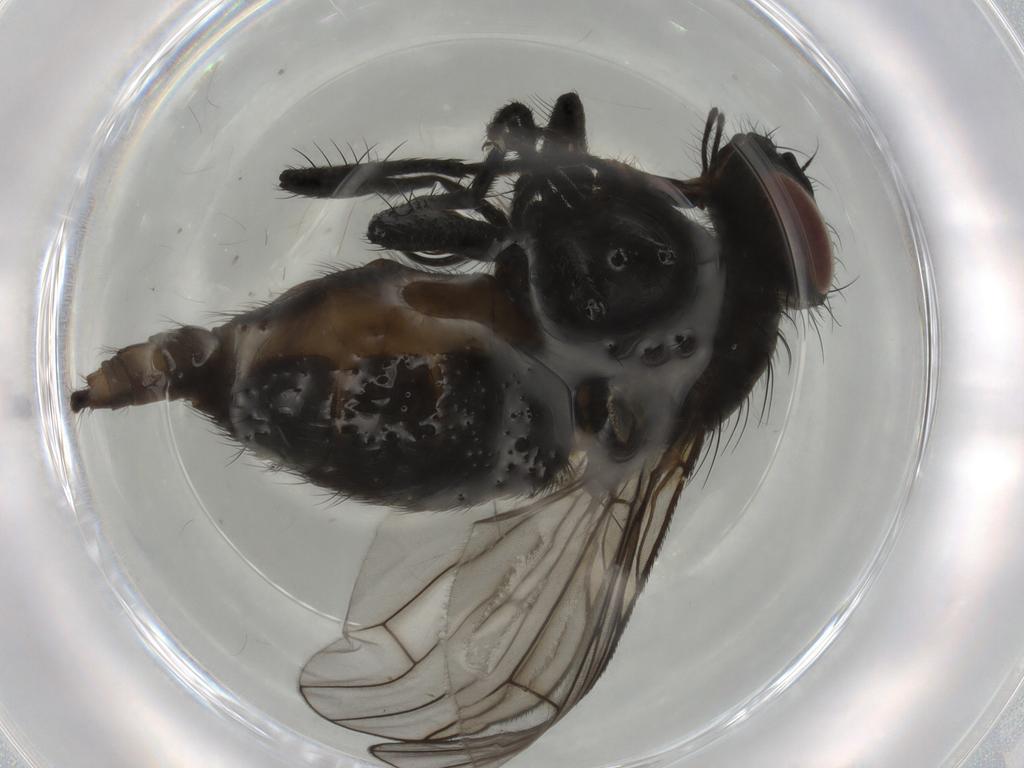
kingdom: Animalia
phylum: Arthropoda
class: Insecta
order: Diptera
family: Muscidae
